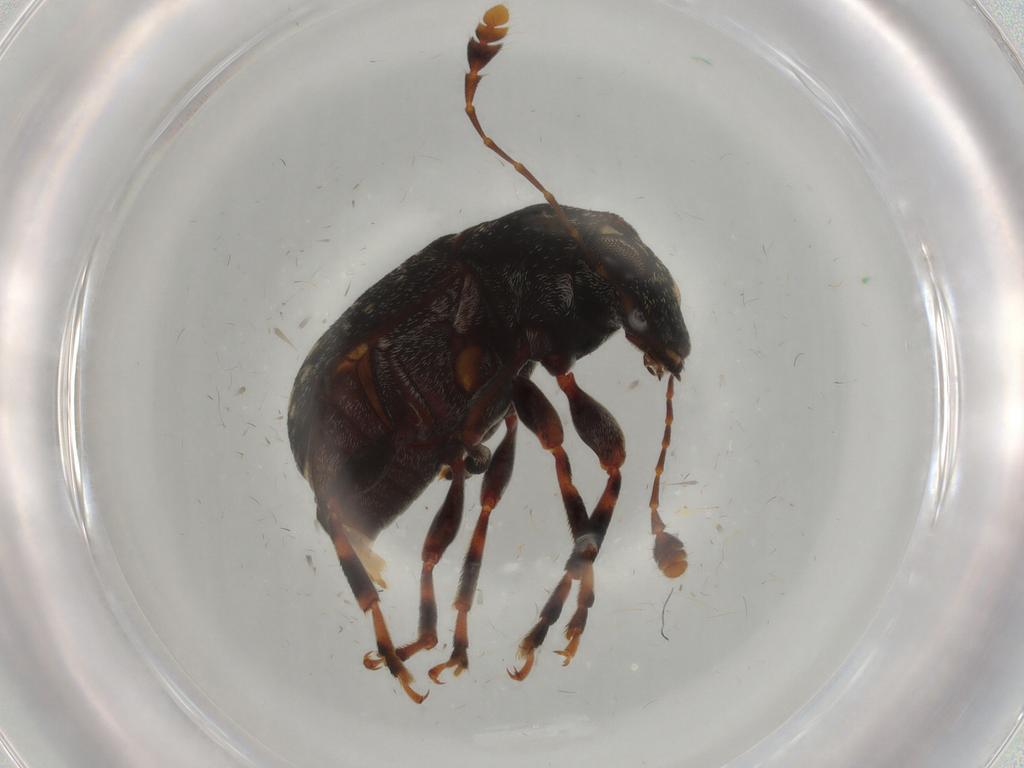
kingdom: Animalia
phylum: Arthropoda
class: Insecta
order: Coleoptera
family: Anthribidae
